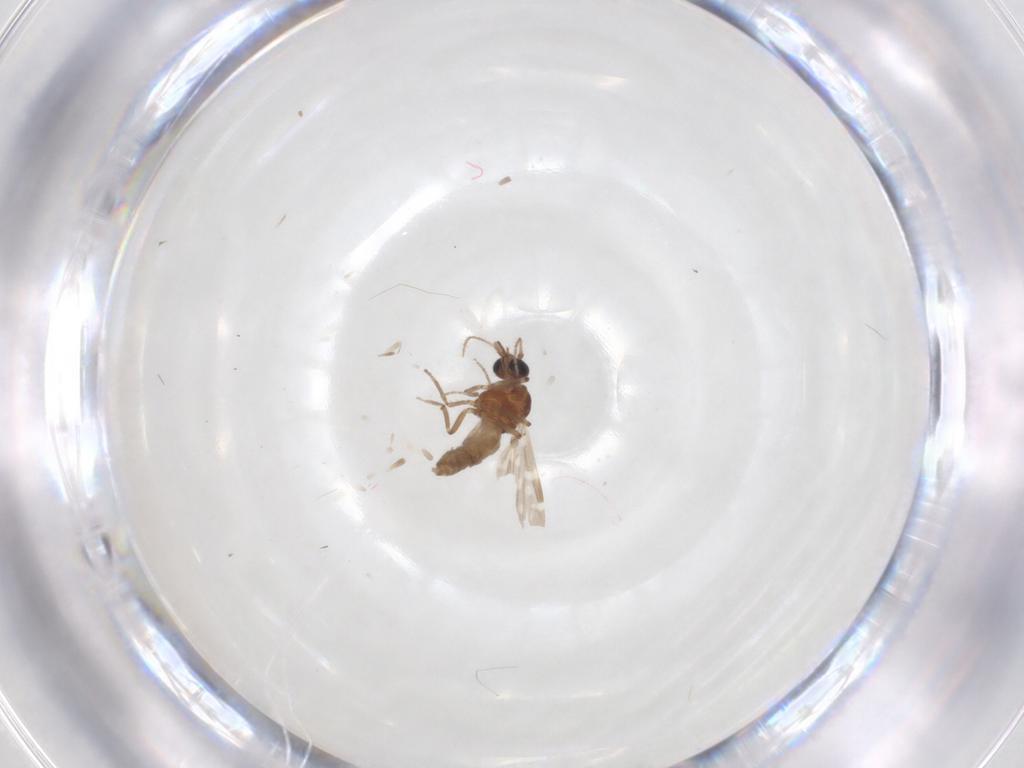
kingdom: Animalia
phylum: Arthropoda
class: Insecta
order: Diptera
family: Ceratopogonidae
